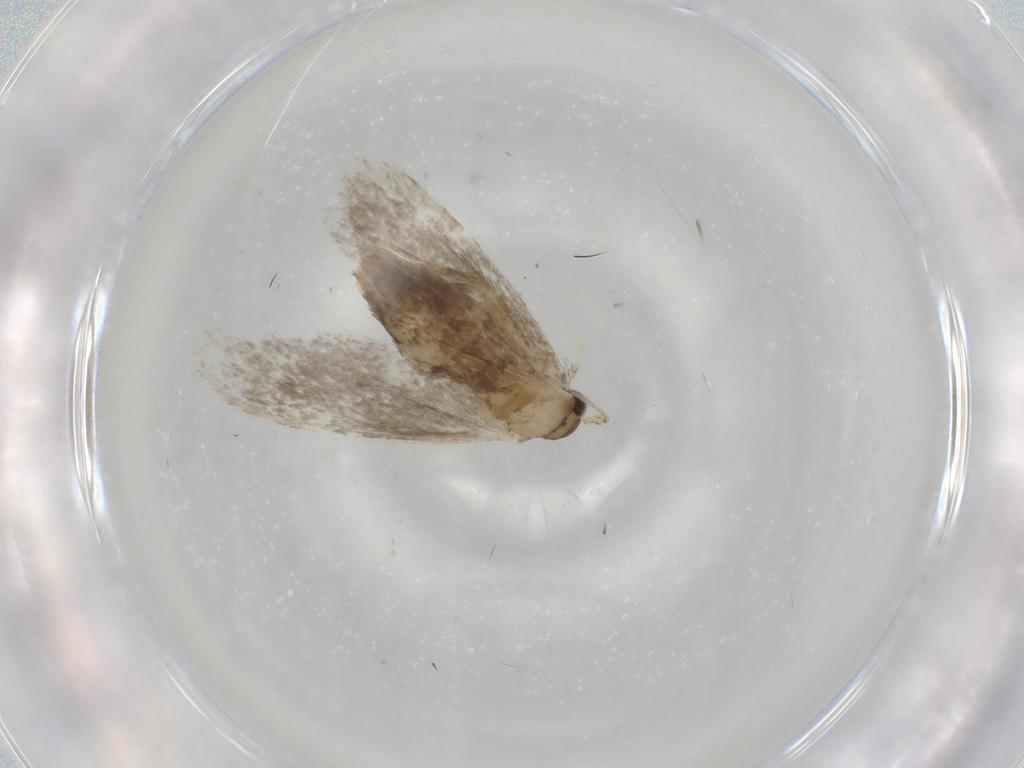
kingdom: Animalia
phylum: Arthropoda
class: Insecta
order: Lepidoptera
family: Tineidae
